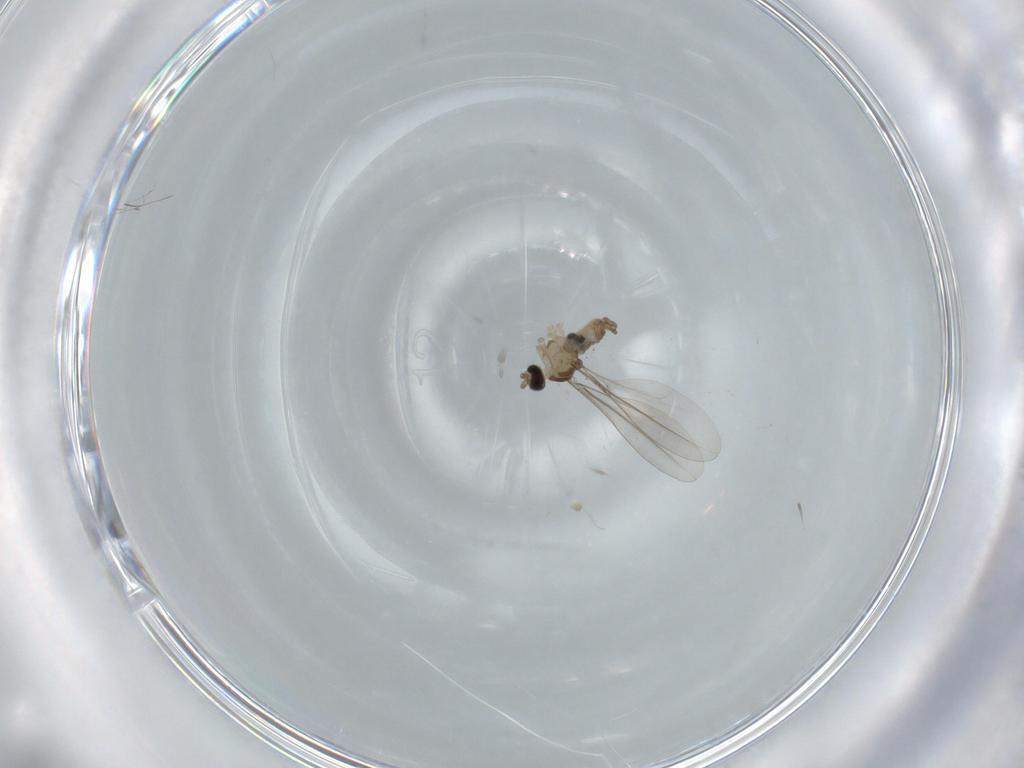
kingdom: Animalia
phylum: Arthropoda
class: Insecta
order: Diptera
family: Cecidomyiidae
